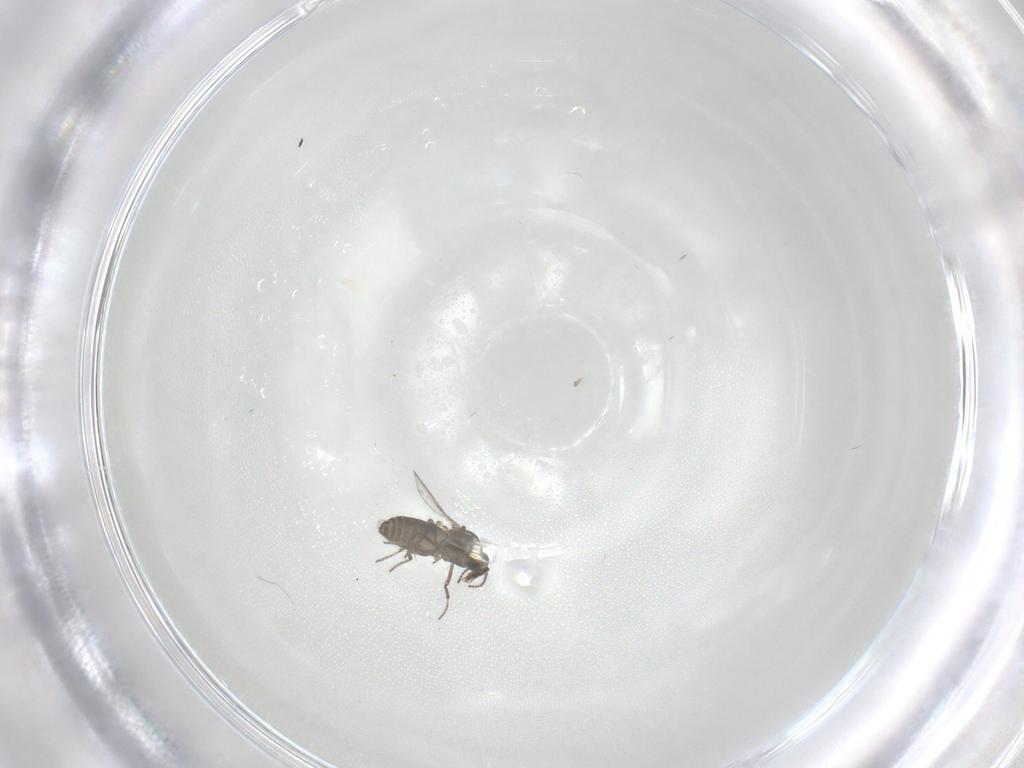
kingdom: Animalia
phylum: Arthropoda
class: Insecta
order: Diptera
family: Ceratopogonidae
